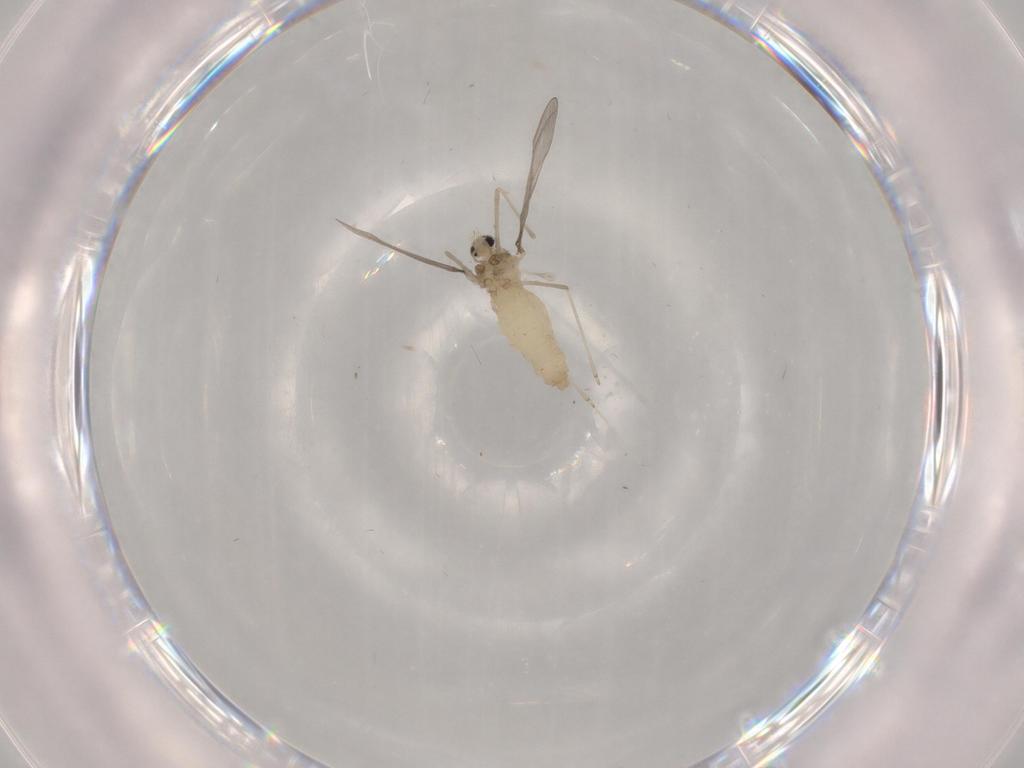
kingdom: Animalia
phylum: Arthropoda
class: Insecta
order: Diptera
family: Cecidomyiidae
